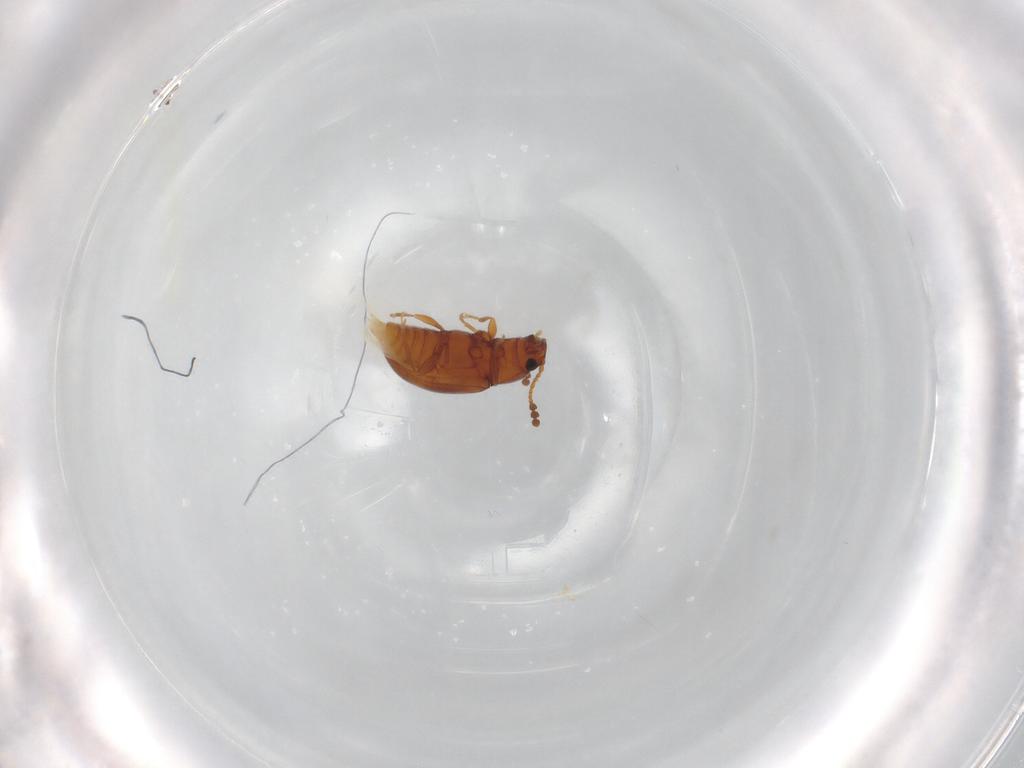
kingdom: Animalia
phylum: Arthropoda
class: Insecta
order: Coleoptera
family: Erotylidae
